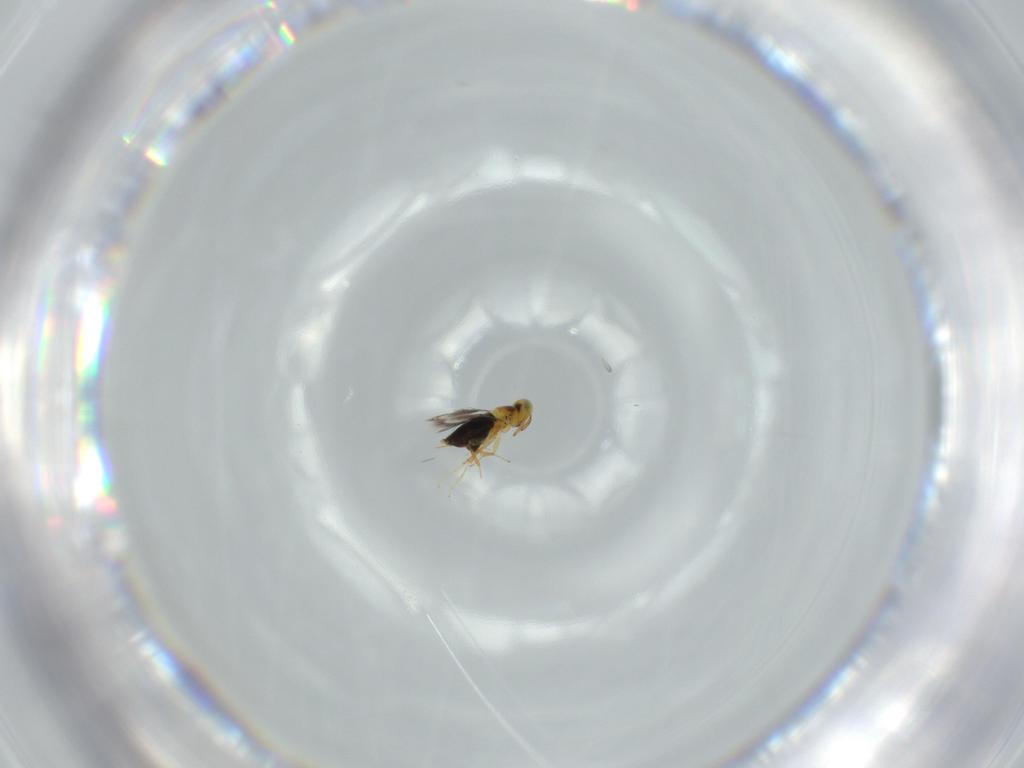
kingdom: Animalia
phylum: Arthropoda
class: Insecta
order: Hymenoptera
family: Signiphoridae
